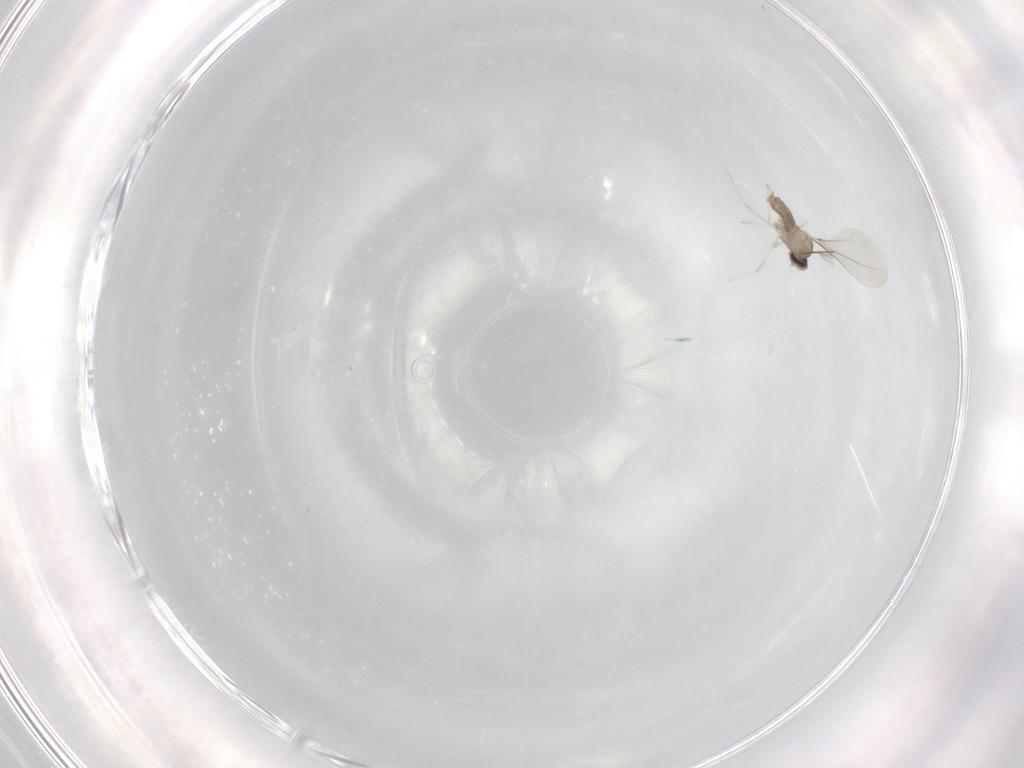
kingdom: Animalia
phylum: Arthropoda
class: Insecta
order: Diptera
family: Cecidomyiidae
